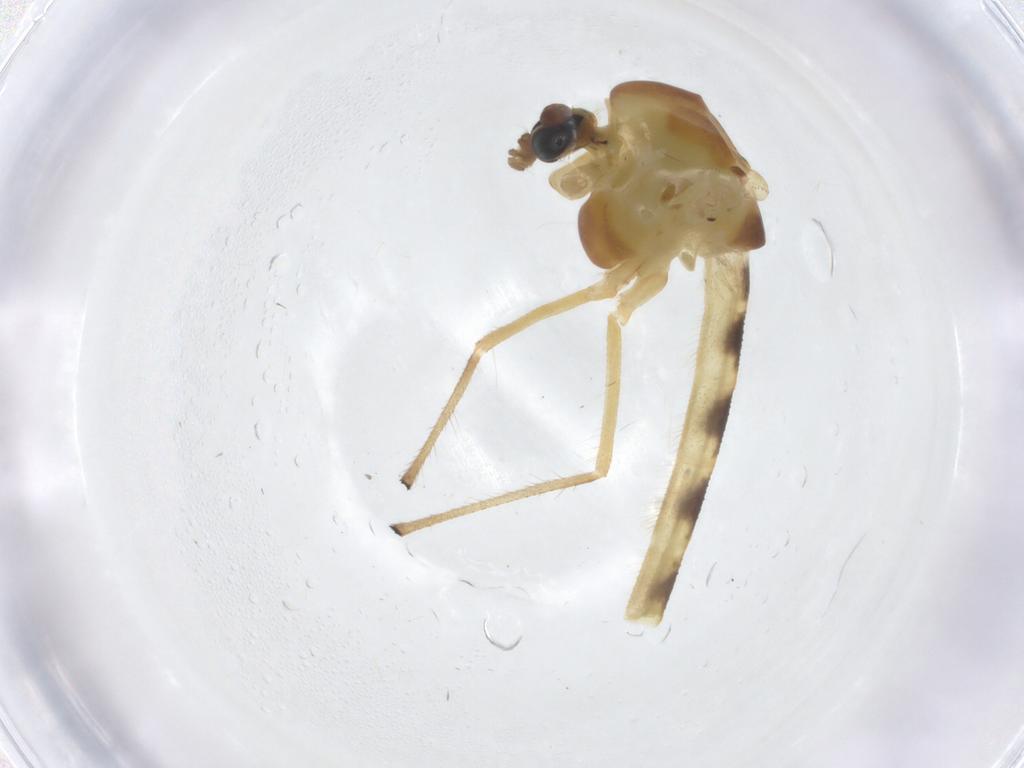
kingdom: Animalia
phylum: Arthropoda
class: Insecta
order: Diptera
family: Chironomidae
